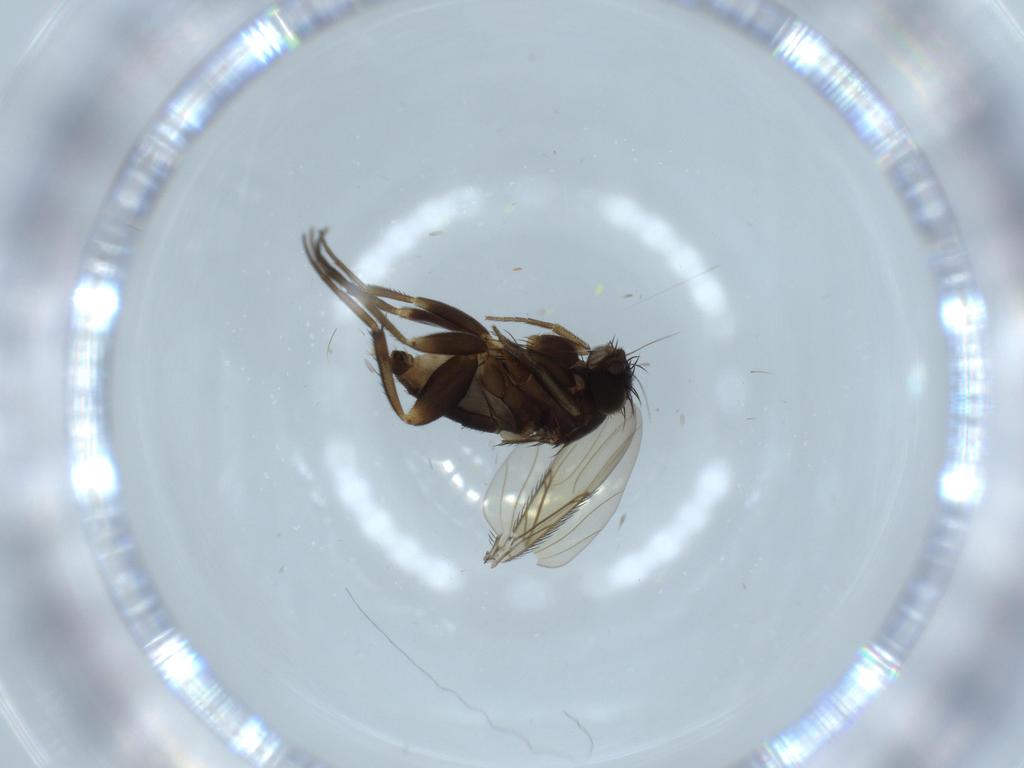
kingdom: Animalia
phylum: Arthropoda
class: Insecta
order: Diptera
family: Phoridae
